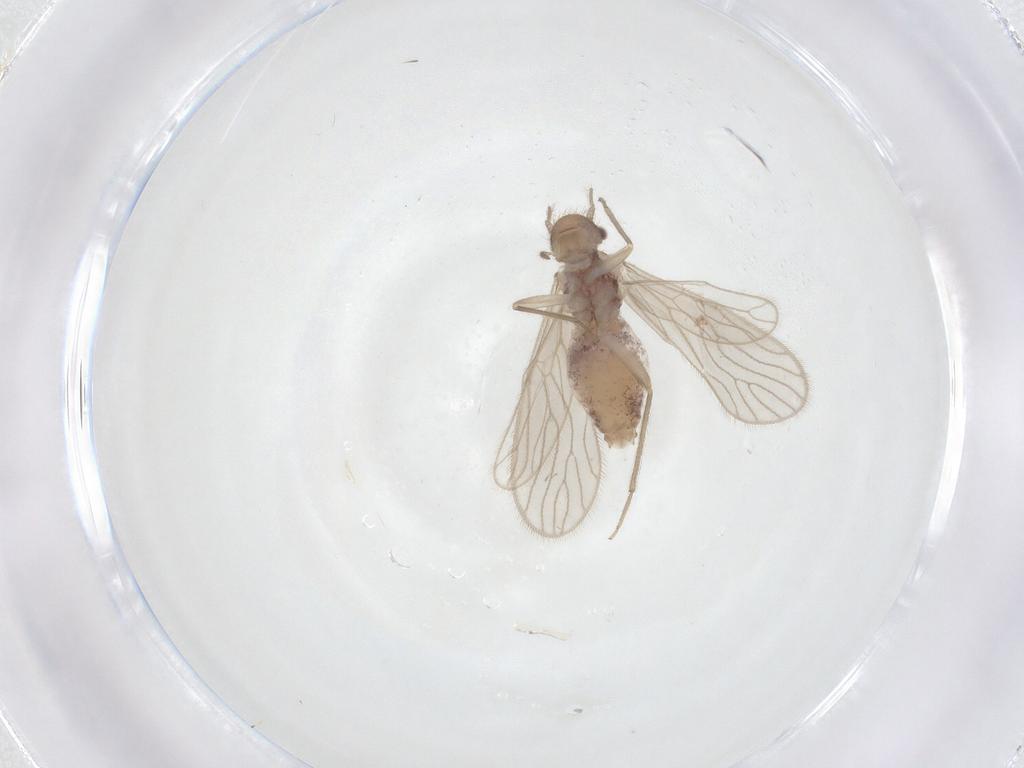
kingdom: Animalia
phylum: Arthropoda
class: Insecta
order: Psocodea
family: Dolabellopsocidae
